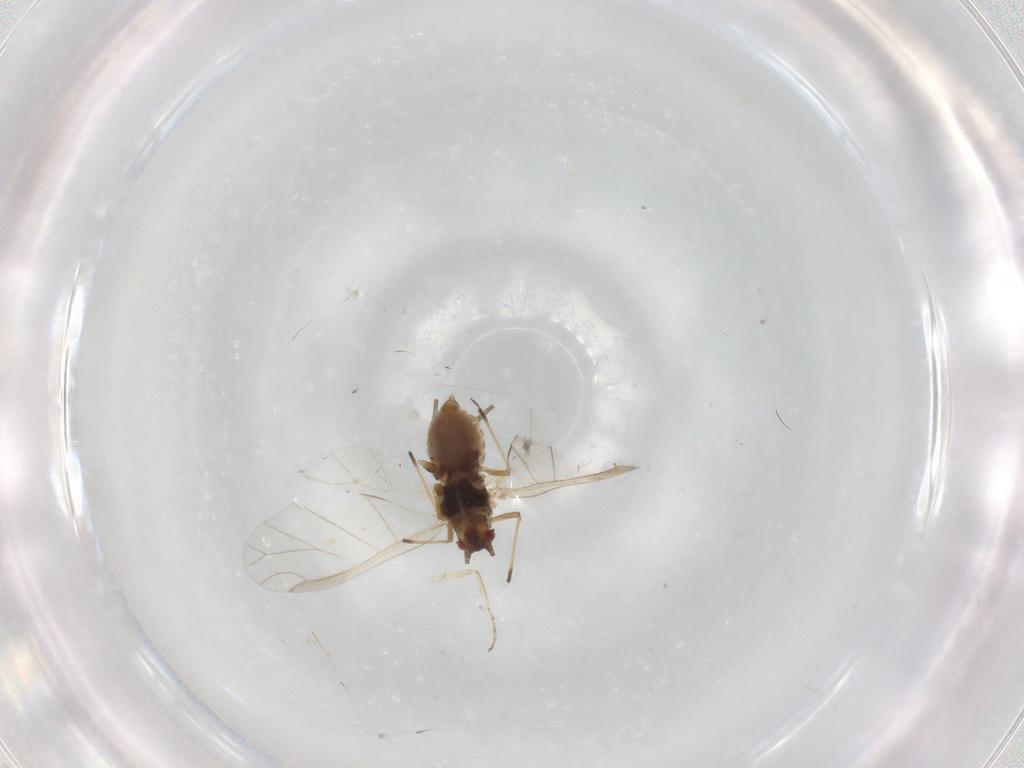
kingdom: Animalia
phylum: Arthropoda
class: Insecta
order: Hemiptera
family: Aphididae
